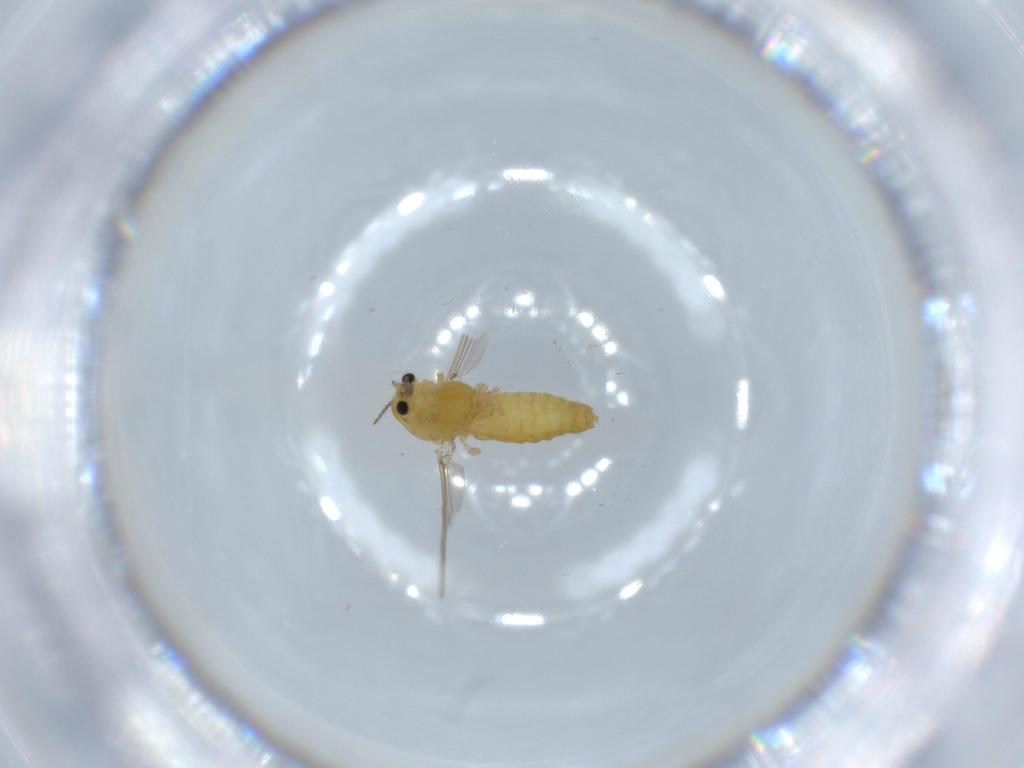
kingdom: Animalia
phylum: Arthropoda
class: Insecta
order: Diptera
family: Chironomidae
